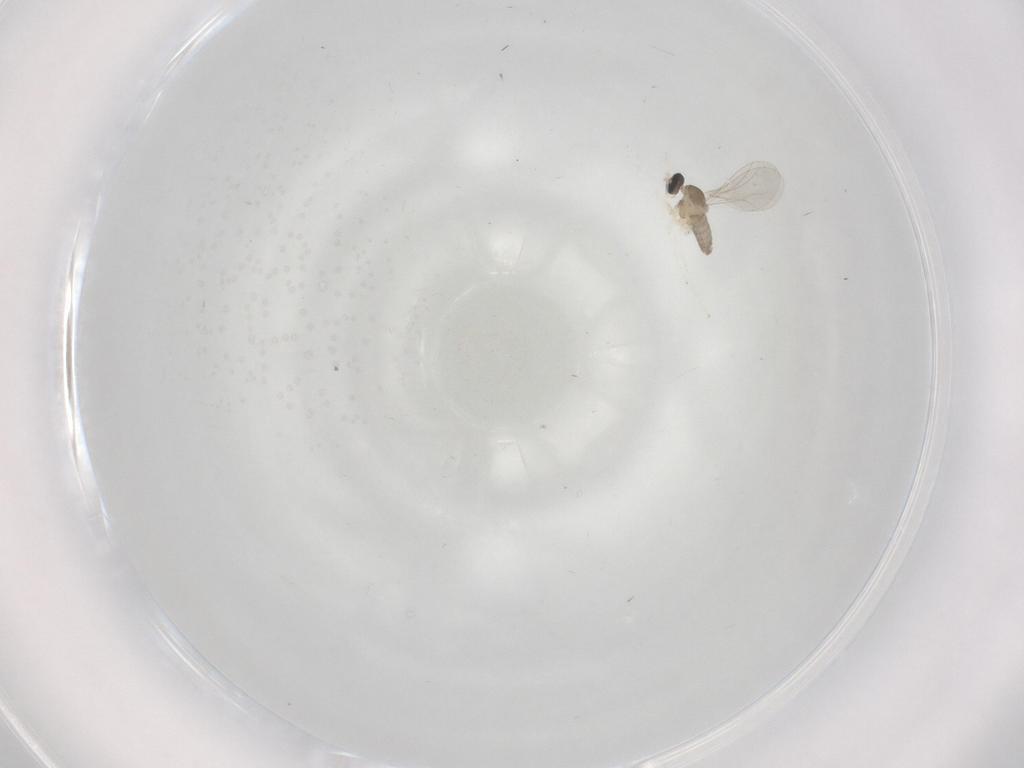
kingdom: Animalia
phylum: Arthropoda
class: Insecta
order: Diptera
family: Cecidomyiidae
